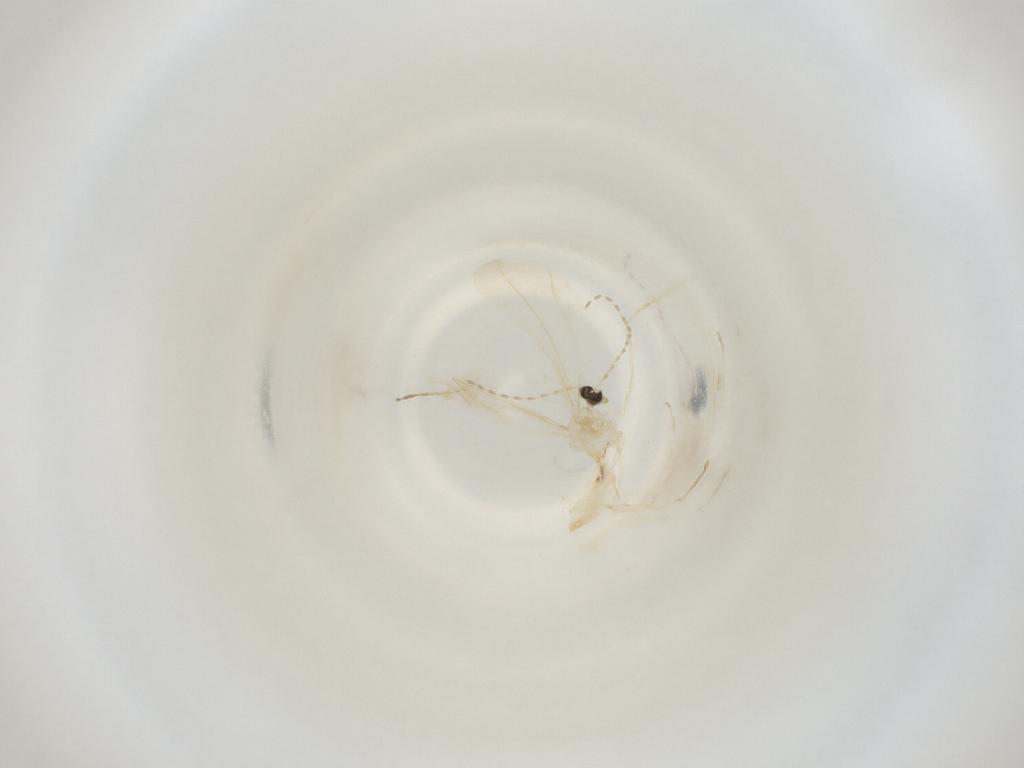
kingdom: Animalia
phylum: Arthropoda
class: Insecta
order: Diptera
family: Cecidomyiidae
